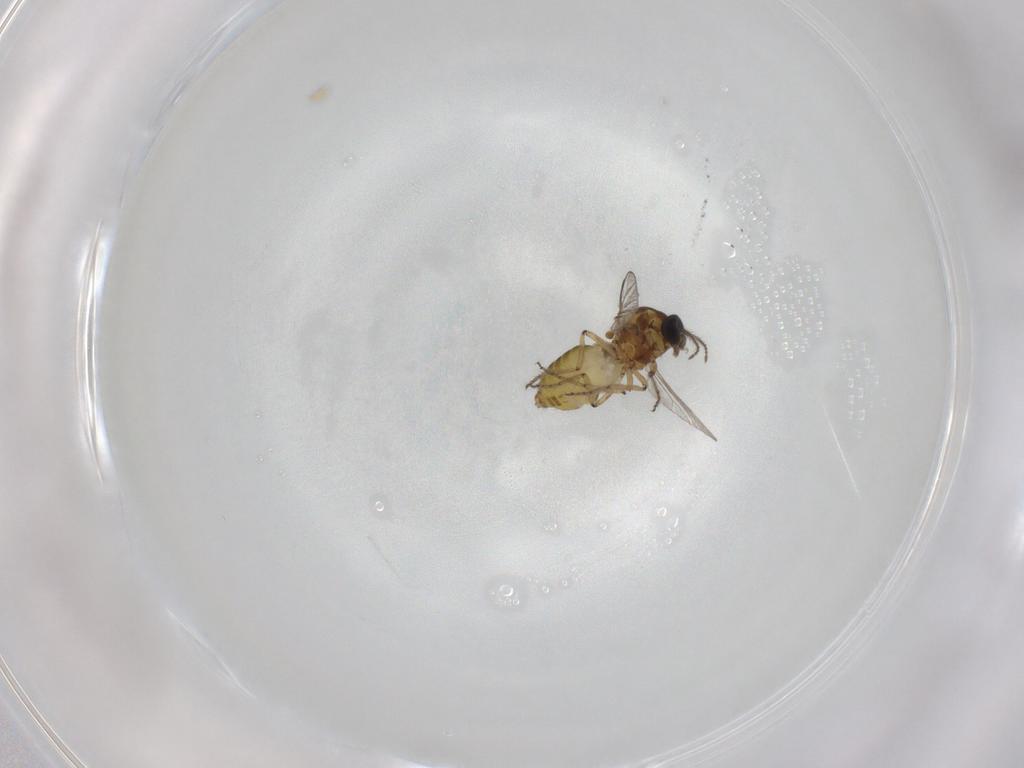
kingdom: Animalia
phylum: Arthropoda
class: Insecta
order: Diptera
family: Ceratopogonidae
